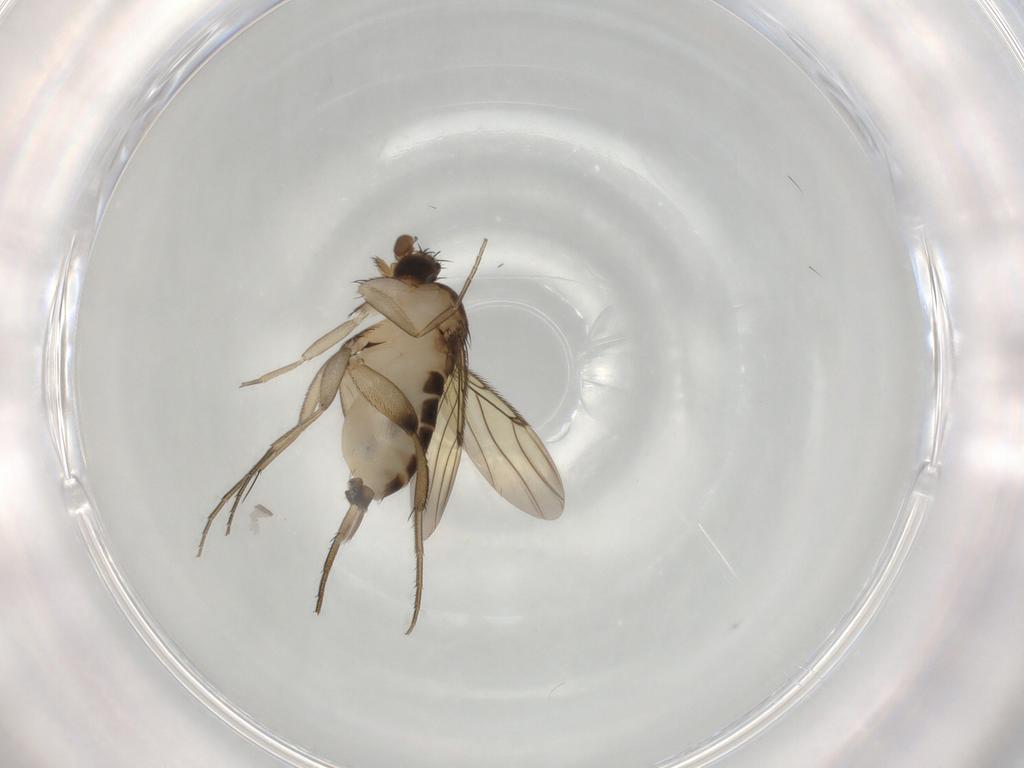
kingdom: Animalia
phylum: Arthropoda
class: Insecta
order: Diptera
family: Phoridae
